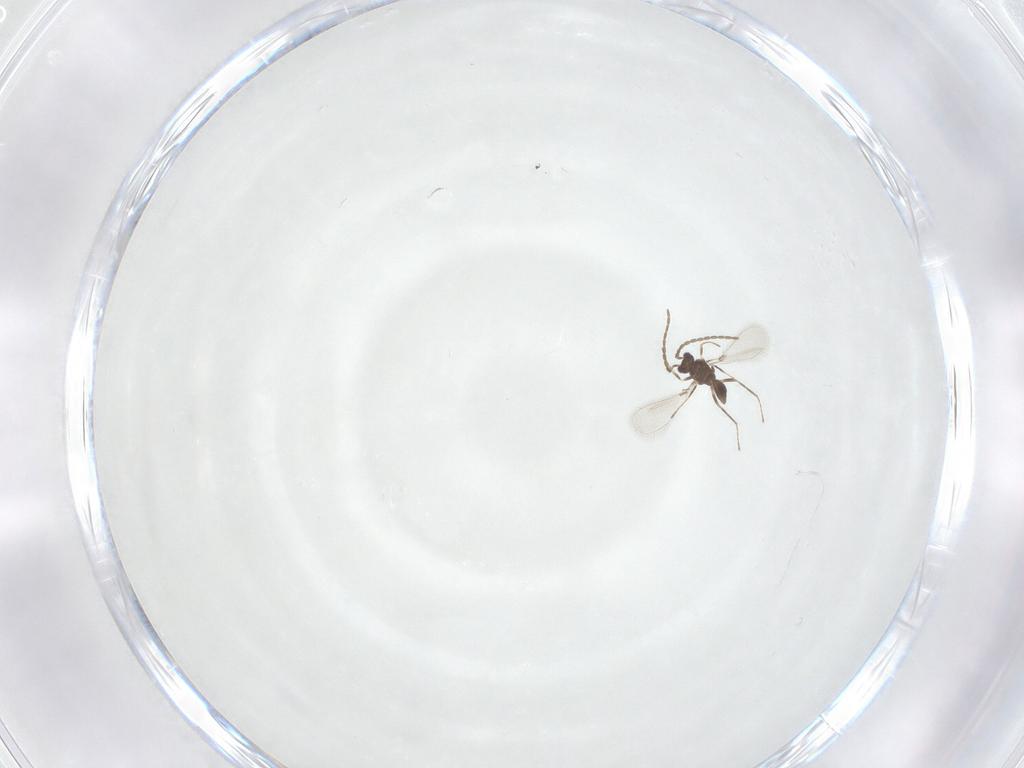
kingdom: Animalia
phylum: Arthropoda
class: Insecta
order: Hymenoptera
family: Mymaridae
